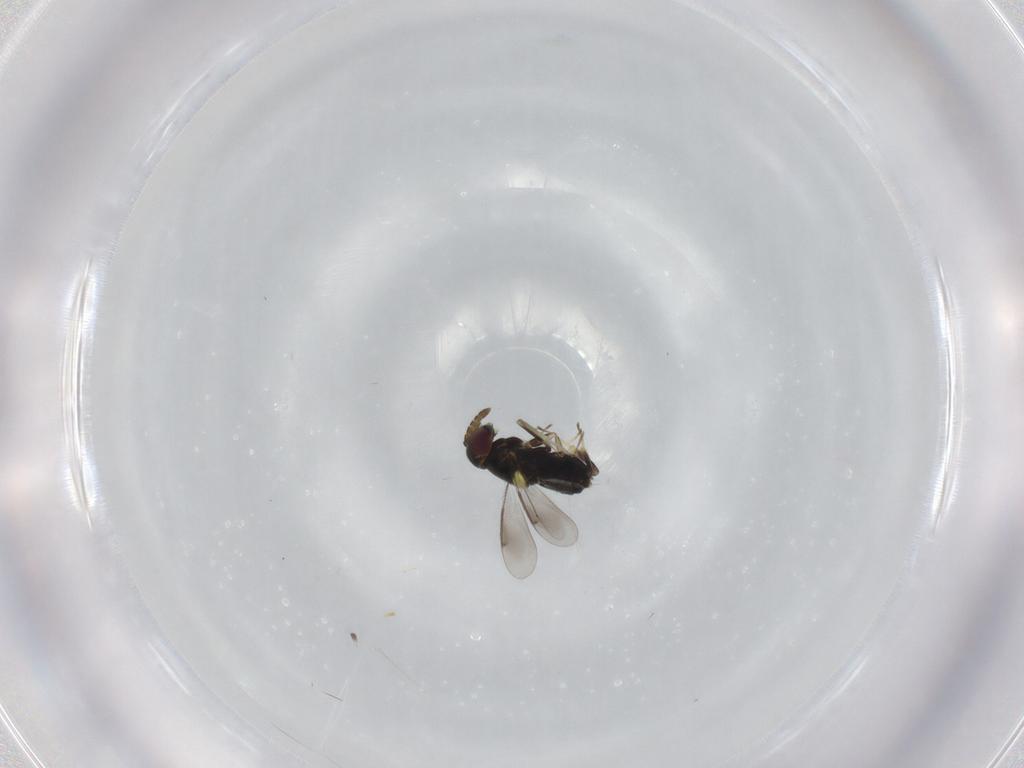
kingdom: Animalia
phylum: Arthropoda
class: Insecta
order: Hymenoptera
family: Aphelinidae
